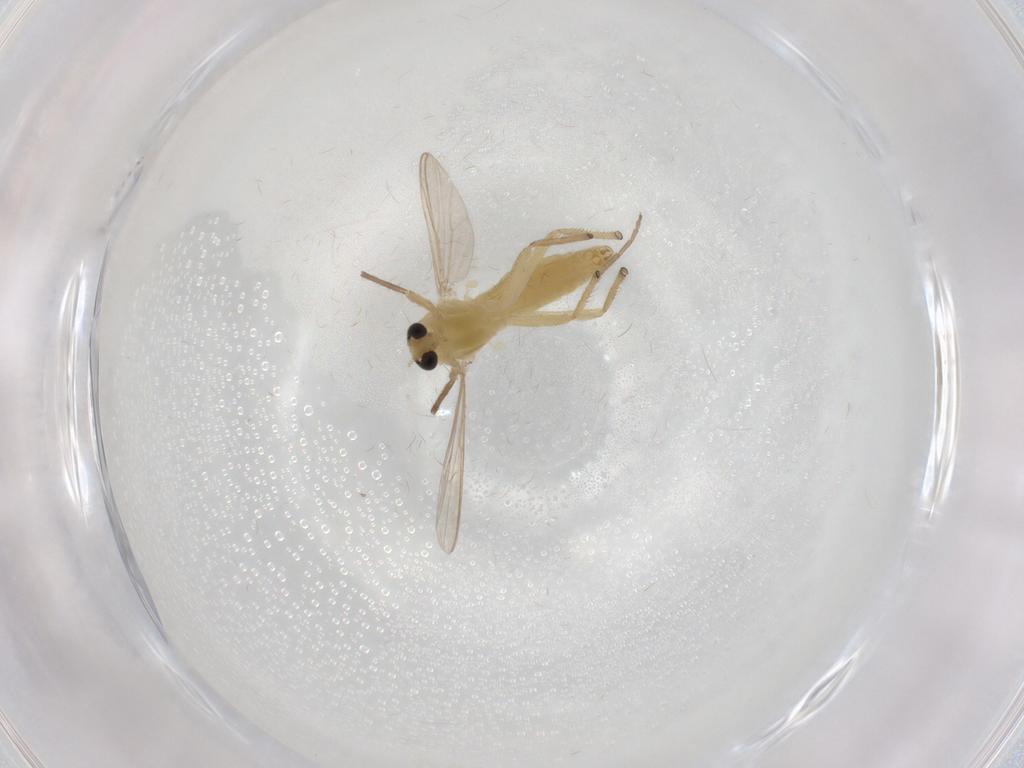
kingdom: Animalia
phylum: Arthropoda
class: Insecta
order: Diptera
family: Chironomidae
